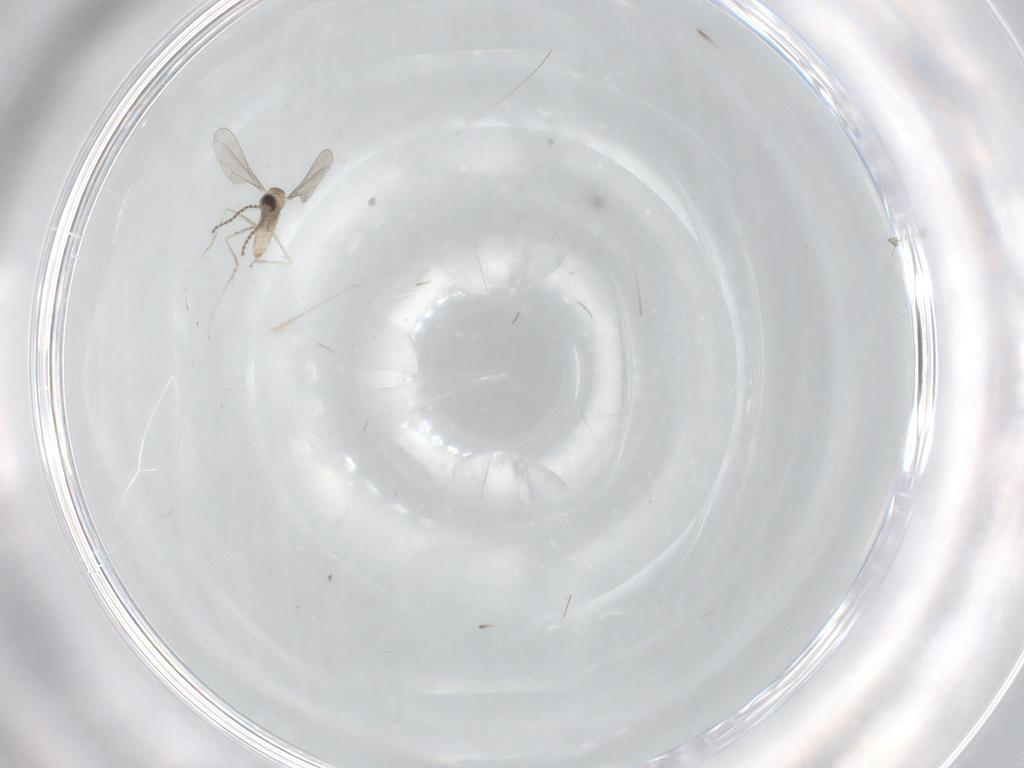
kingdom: Animalia
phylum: Arthropoda
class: Insecta
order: Diptera
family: Cecidomyiidae
